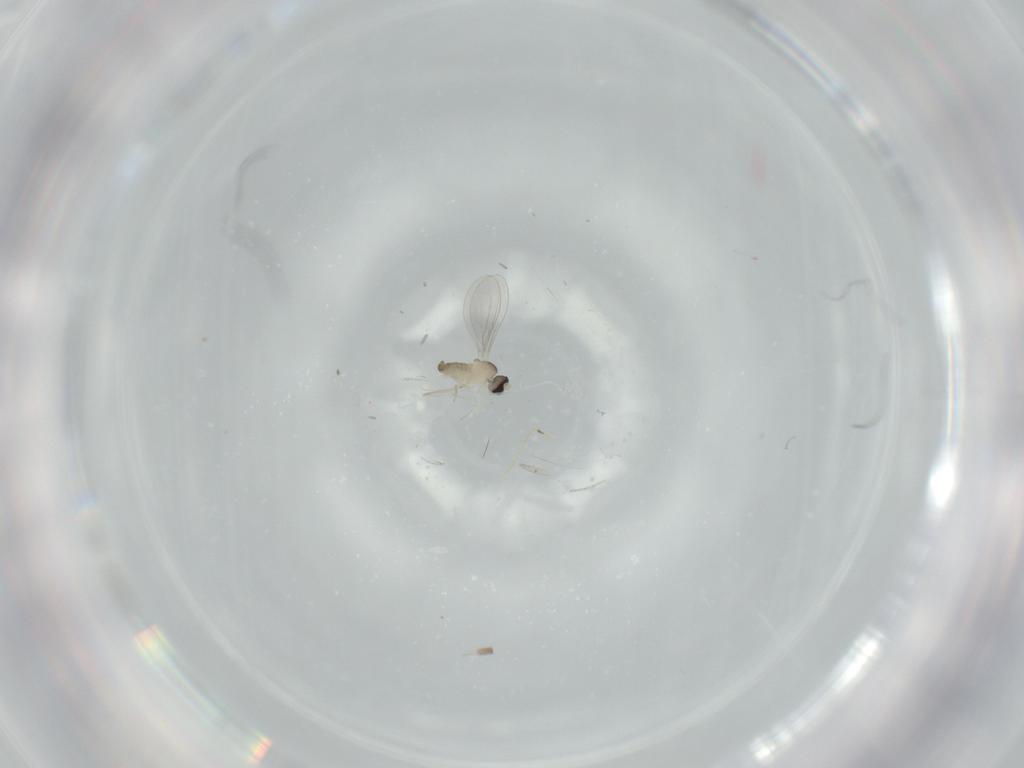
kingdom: Animalia
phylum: Arthropoda
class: Insecta
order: Diptera
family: Cecidomyiidae
